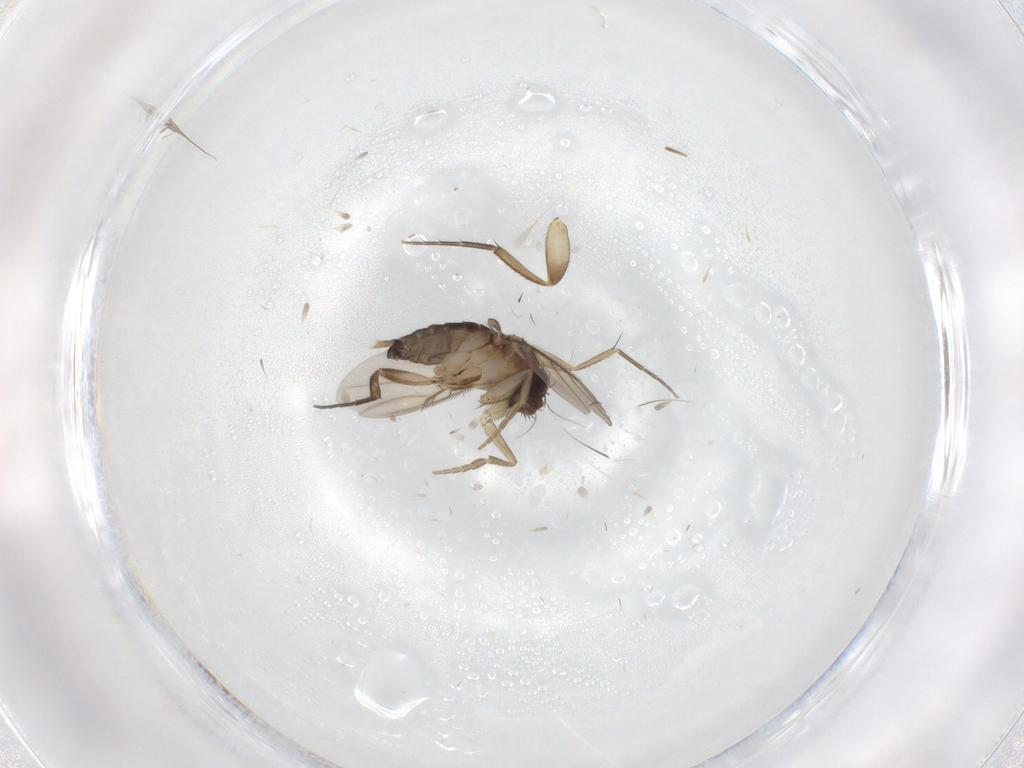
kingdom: Animalia
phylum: Arthropoda
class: Insecta
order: Diptera
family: Phoridae
